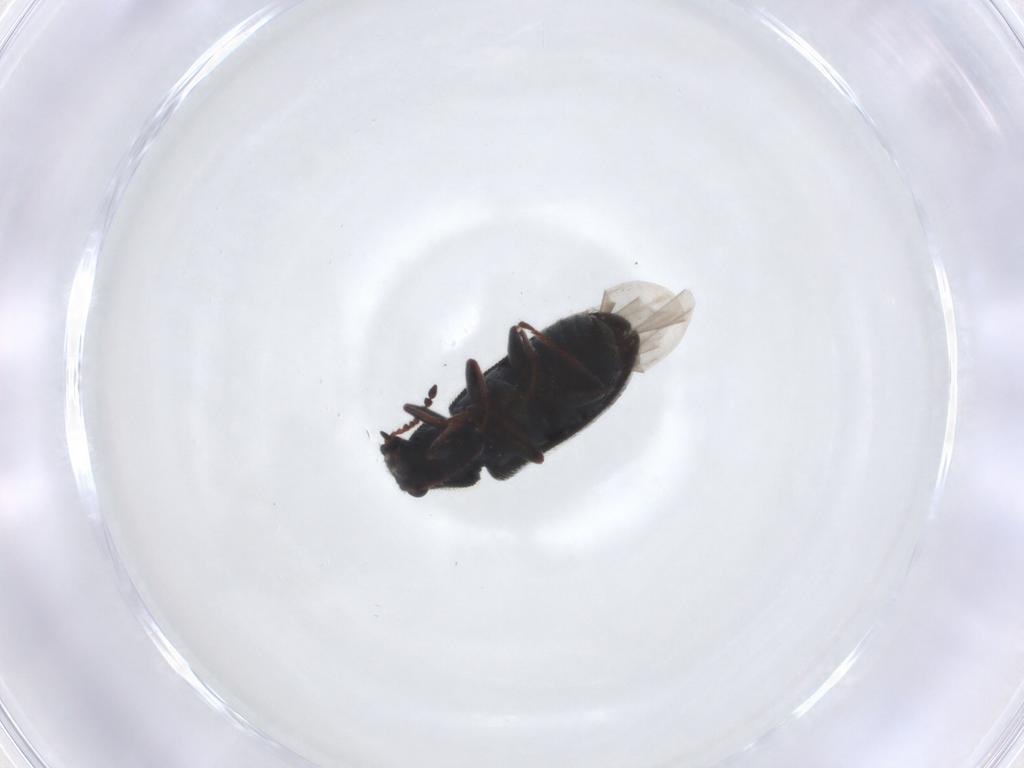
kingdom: Animalia
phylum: Arthropoda
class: Insecta
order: Coleoptera
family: Melyridae
